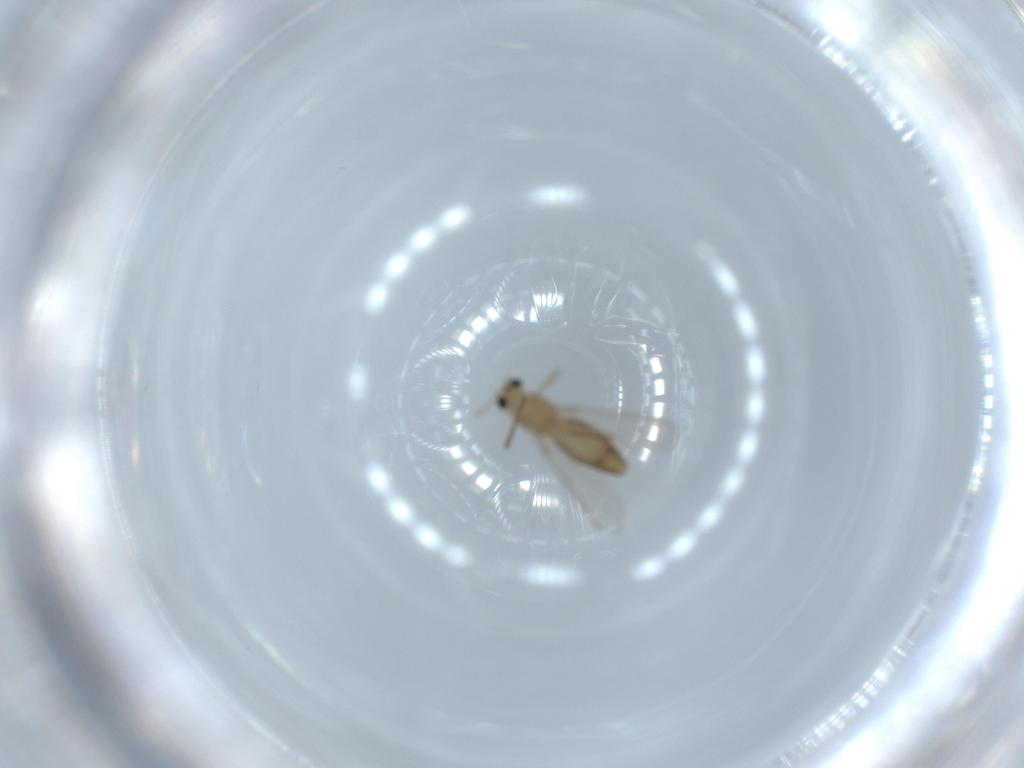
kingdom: Animalia
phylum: Arthropoda
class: Insecta
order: Diptera
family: Chironomidae
